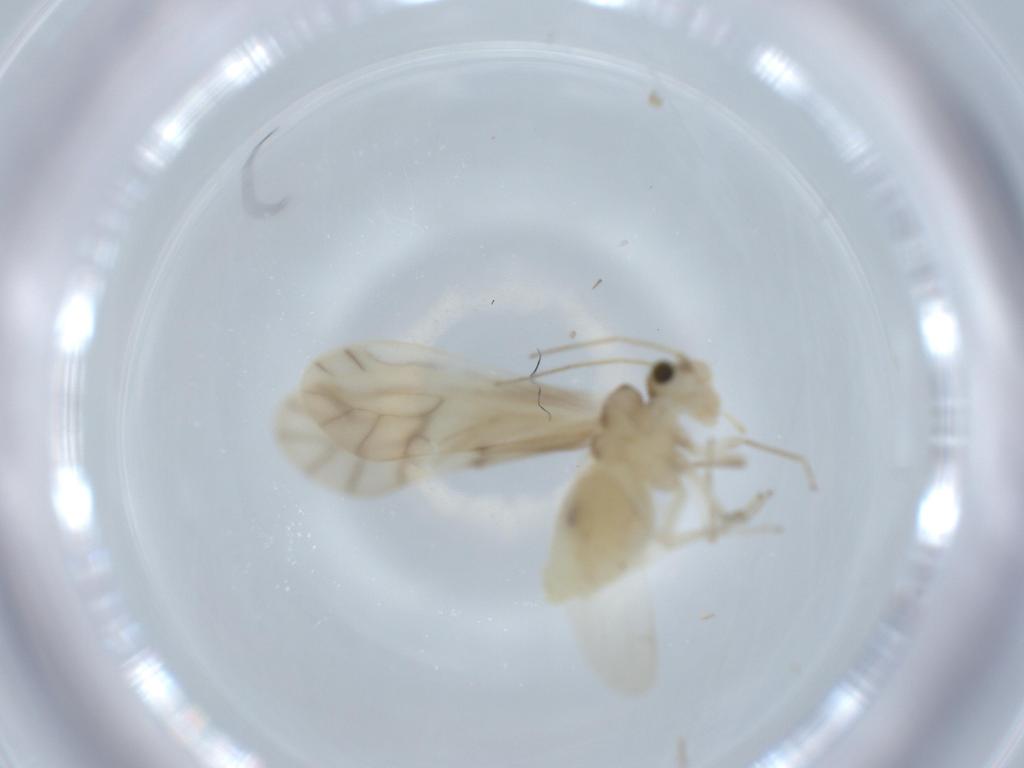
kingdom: Animalia
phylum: Arthropoda
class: Insecta
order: Psocodea
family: Caeciliusidae
